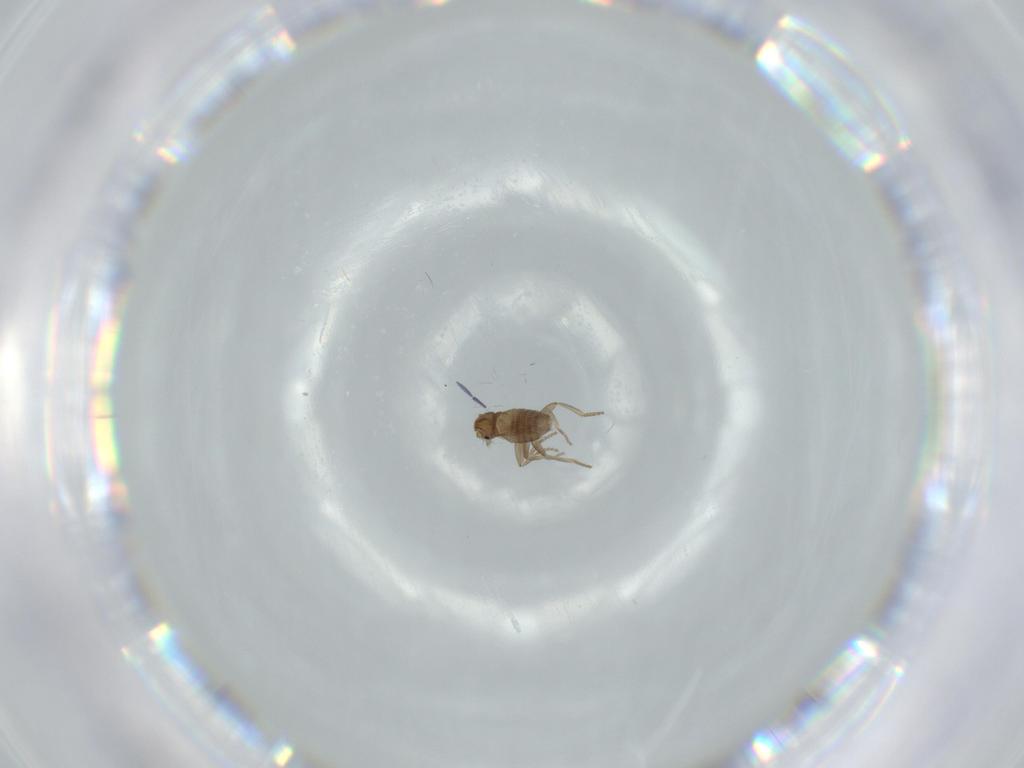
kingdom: Animalia
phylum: Arthropoda
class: Insecta
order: Diptera
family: Phoridae
